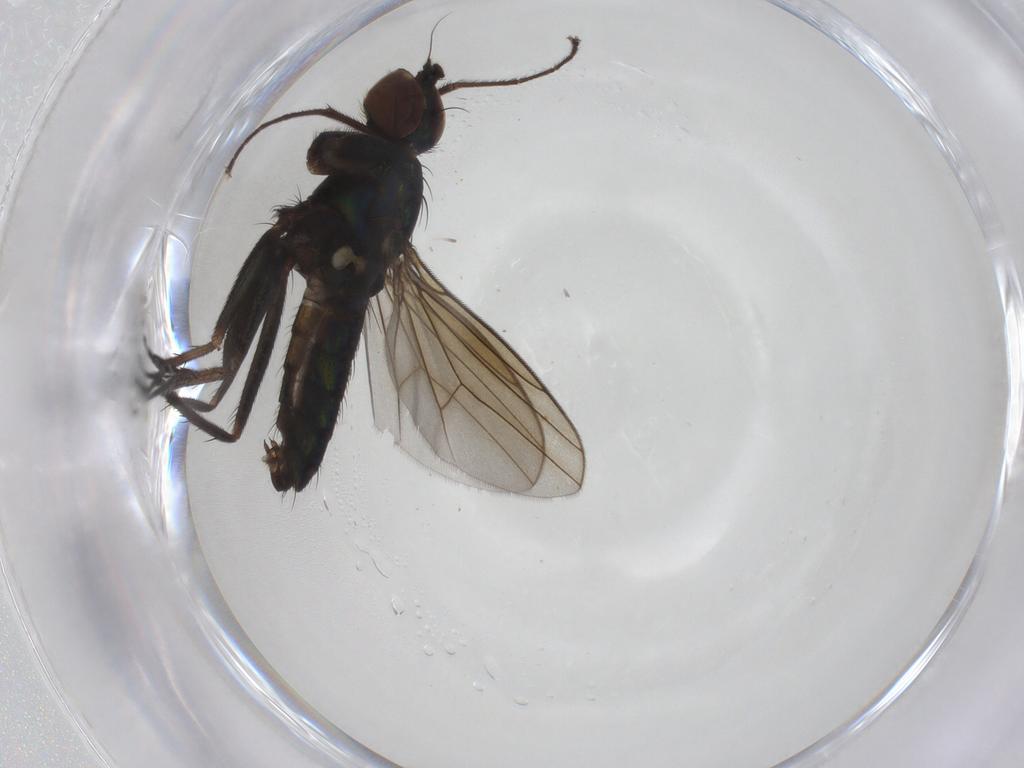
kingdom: Animalia
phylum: Arthropoda
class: Insecta
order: Diptera
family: Dolichopodidae
